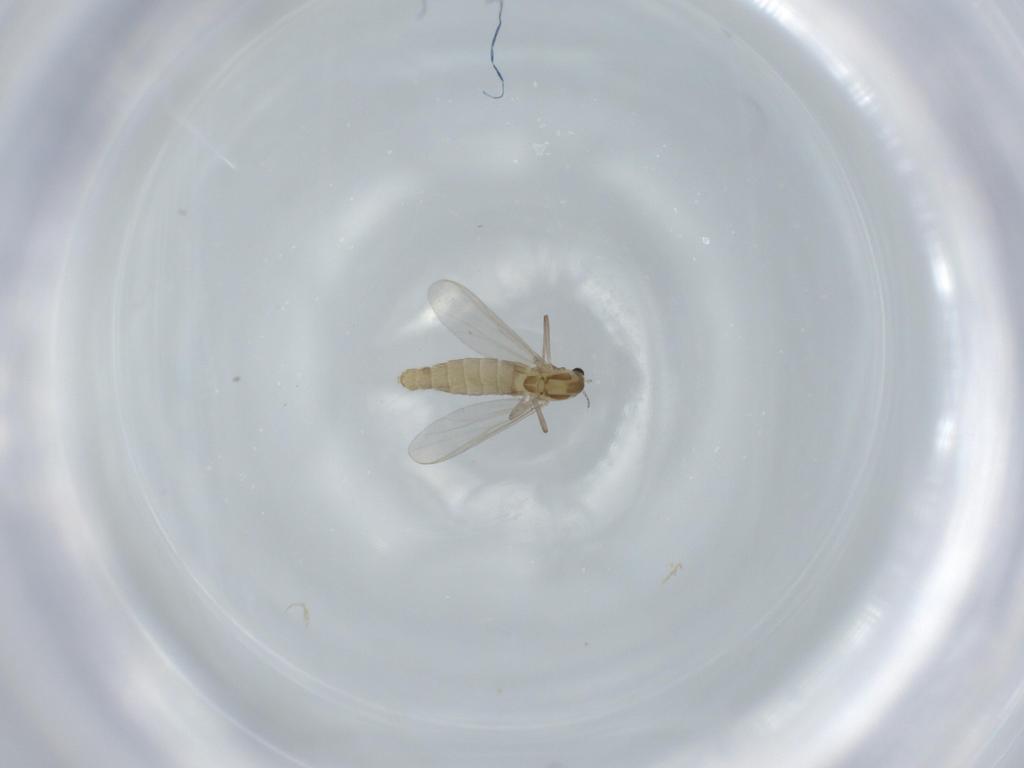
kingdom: Animalia
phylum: Arthropoda
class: Insecta
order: Diptera
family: Chironomidae
